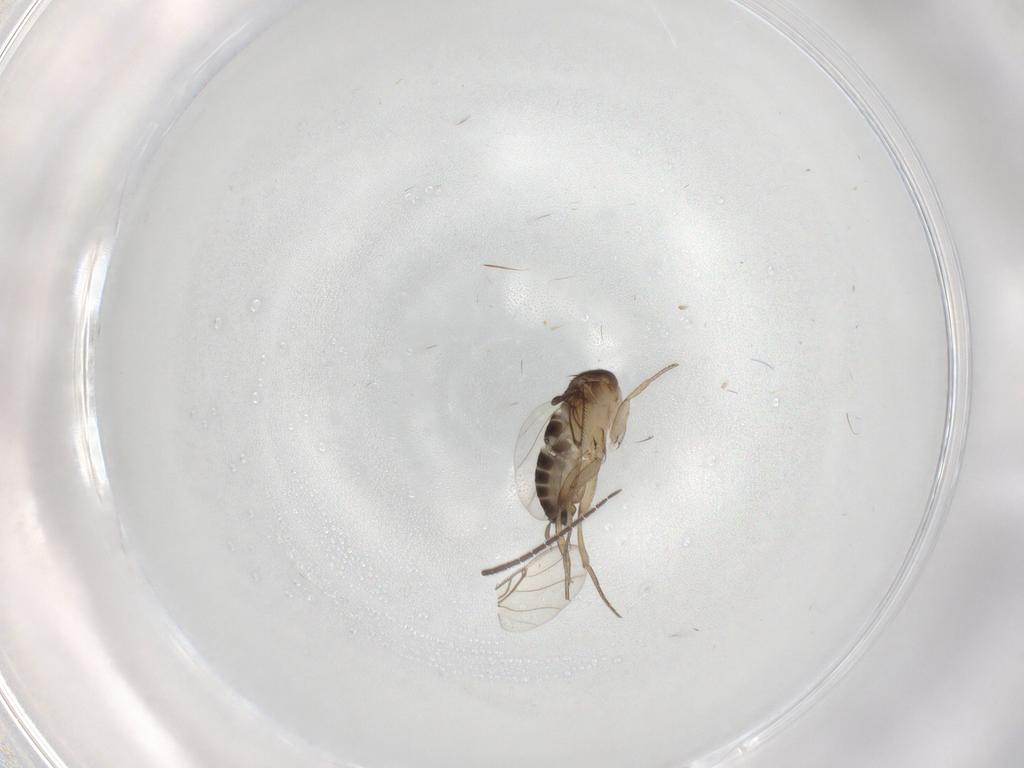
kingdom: Animalia
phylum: Arthropoda
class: Insecta
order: Diptera
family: Sciaridae
